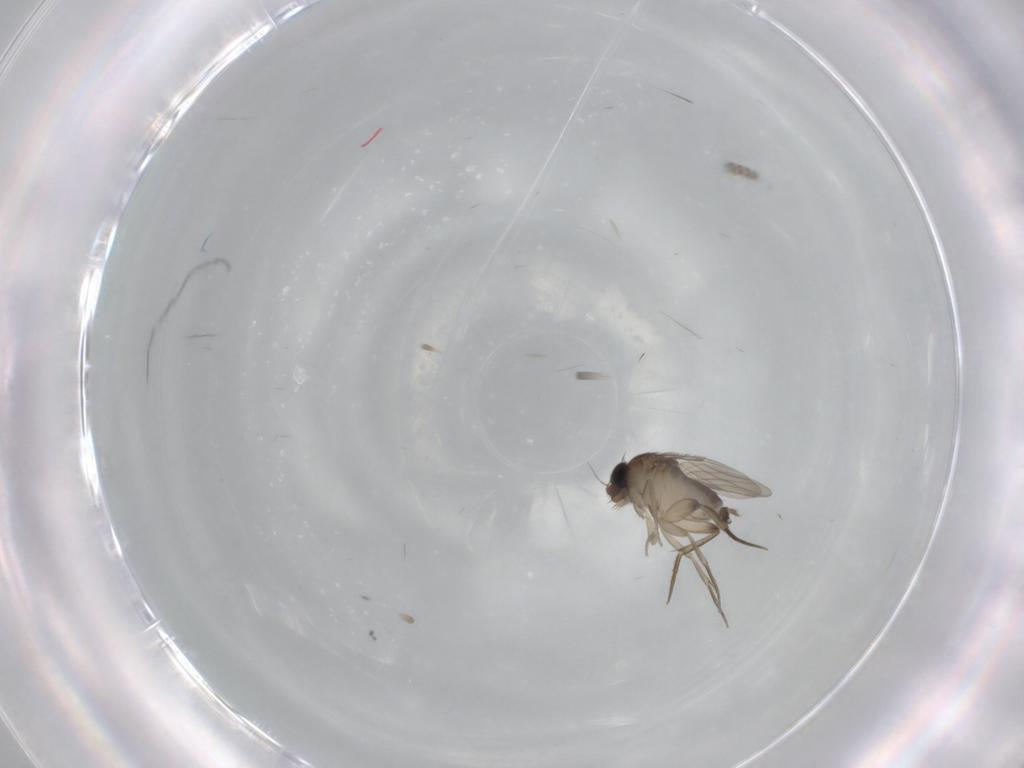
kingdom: Animalia
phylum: Arthropoda
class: Insecta
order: Diptera
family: Phoridae
